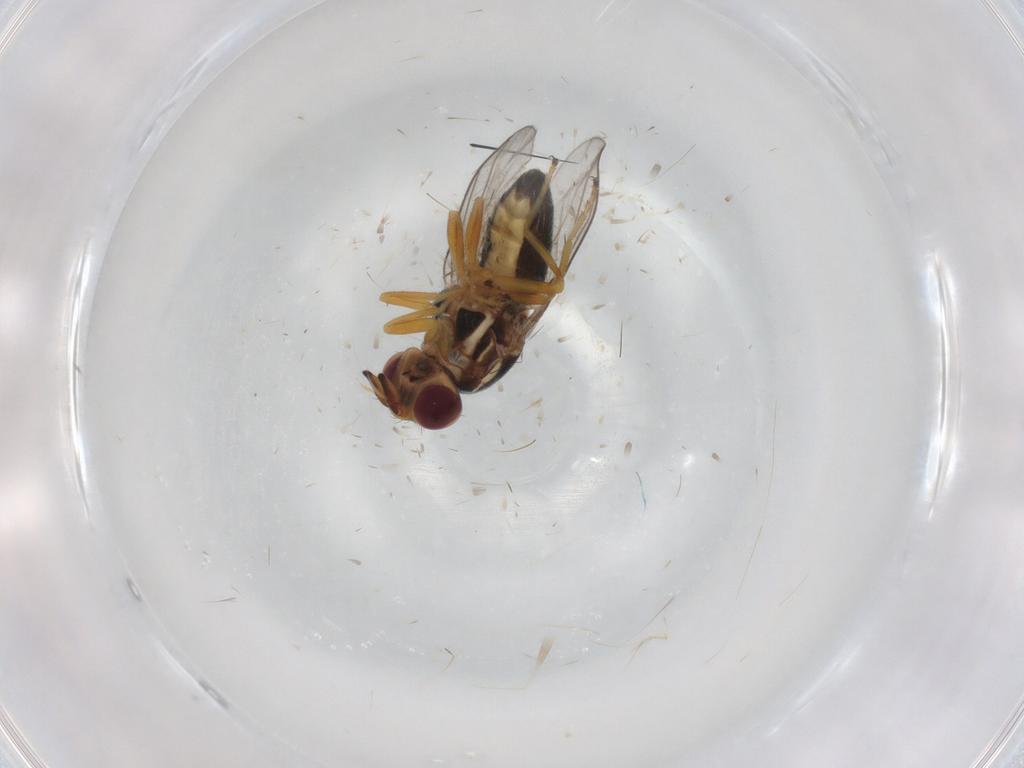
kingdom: Animalia
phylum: Arthropoda
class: Insecta
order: Diptera
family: Chloropidae
